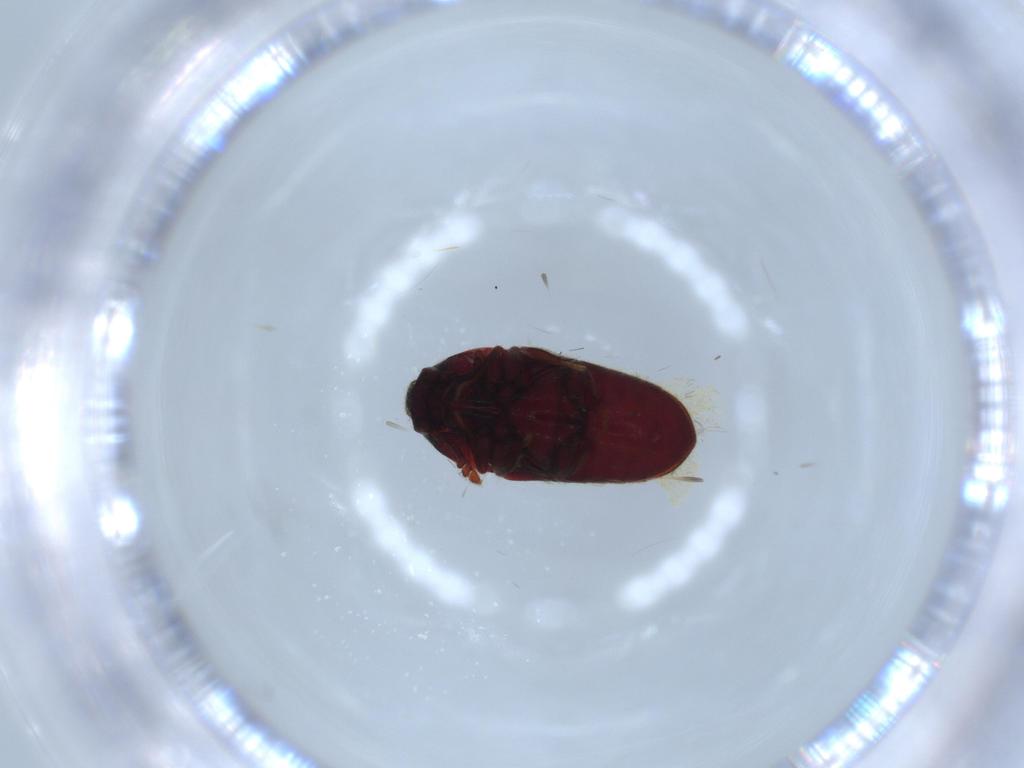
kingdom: Animalia
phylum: Arthropoda
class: Insecta
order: Coleoptera
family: Throscidae
